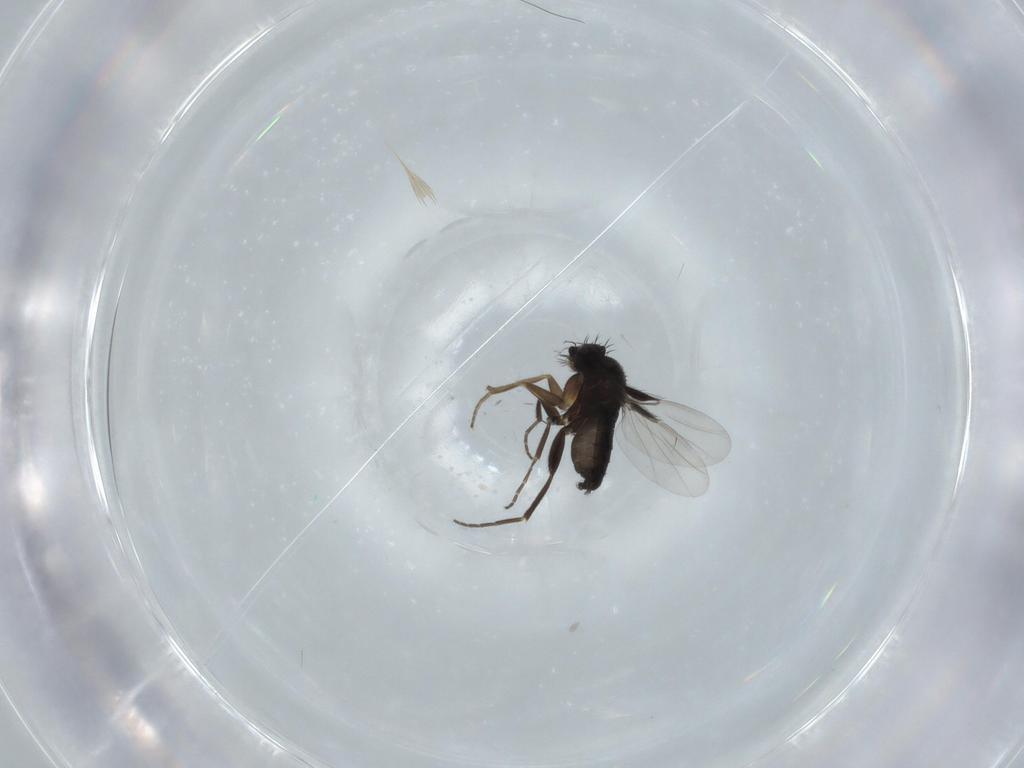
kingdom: Animalia
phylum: Arthropoda
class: Insecta
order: Diptera
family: Phoridae
